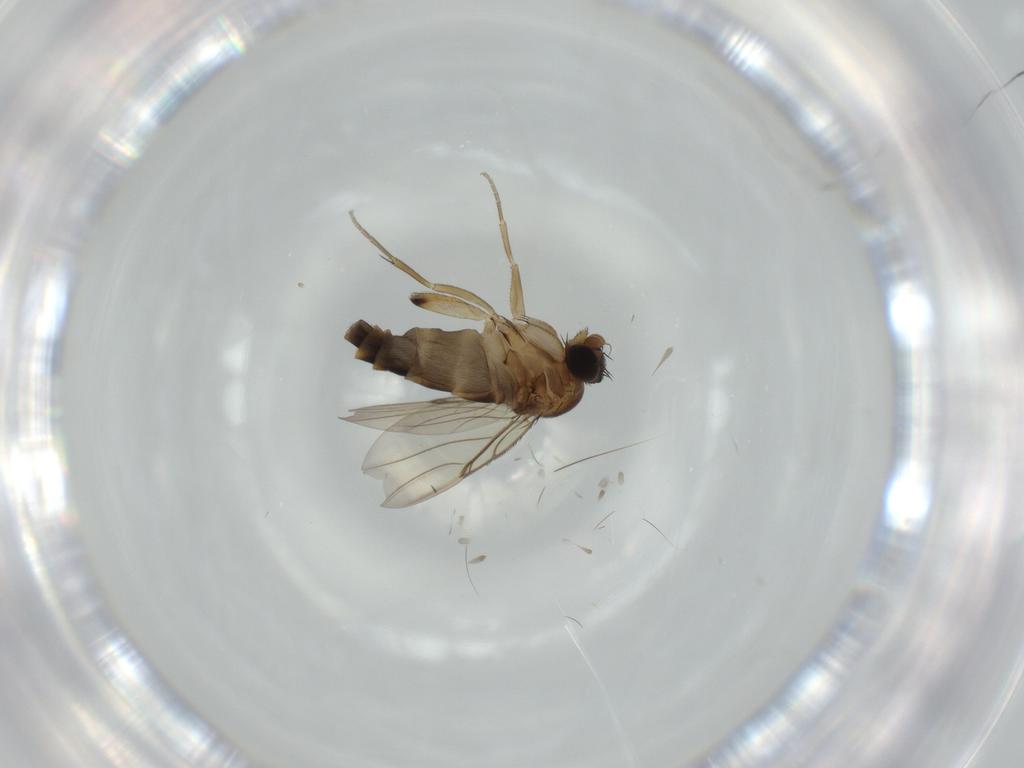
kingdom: Animalia
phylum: Arthropoda
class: Insecta
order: Diptera
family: Phoridae
